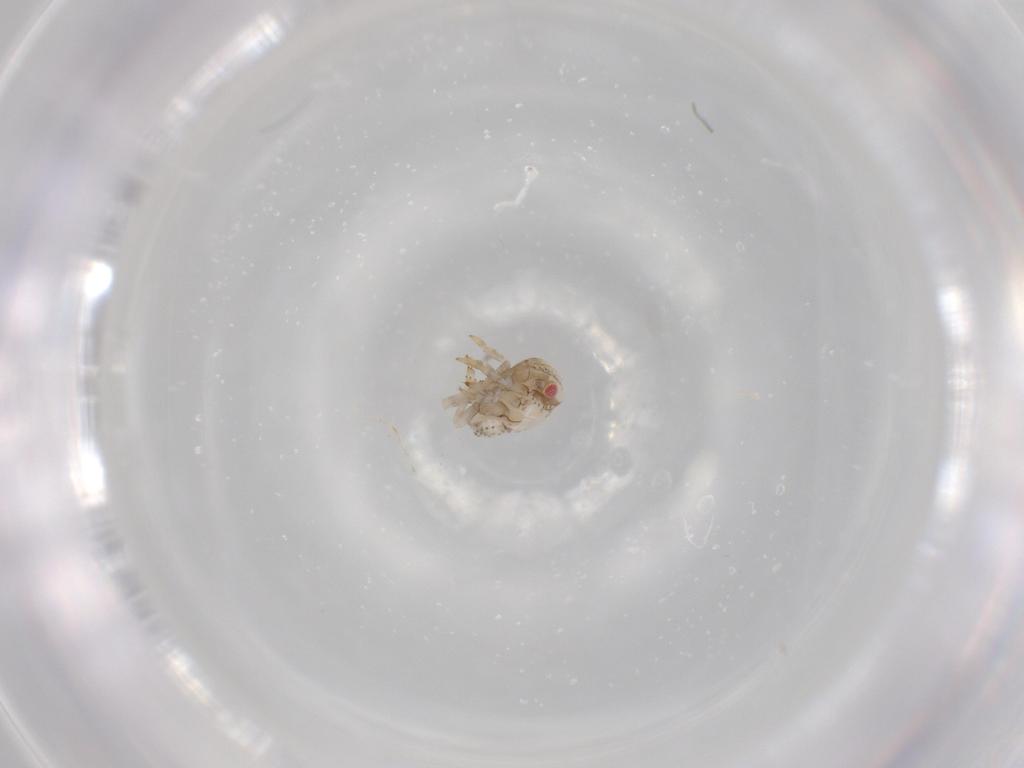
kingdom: Animalia
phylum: Arthropoda
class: Insecta
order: Hemiptera
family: Acanaloniidae
